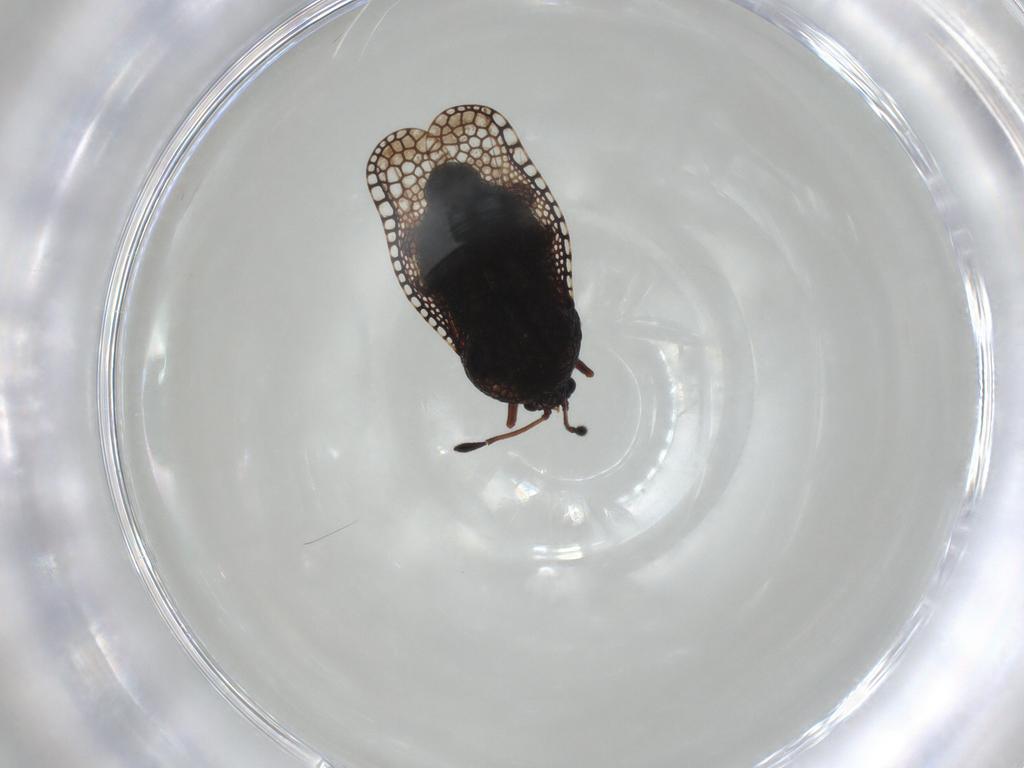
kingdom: Animalia
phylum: Arthropoda
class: Insecta
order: Hemiptera
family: Tingidae
